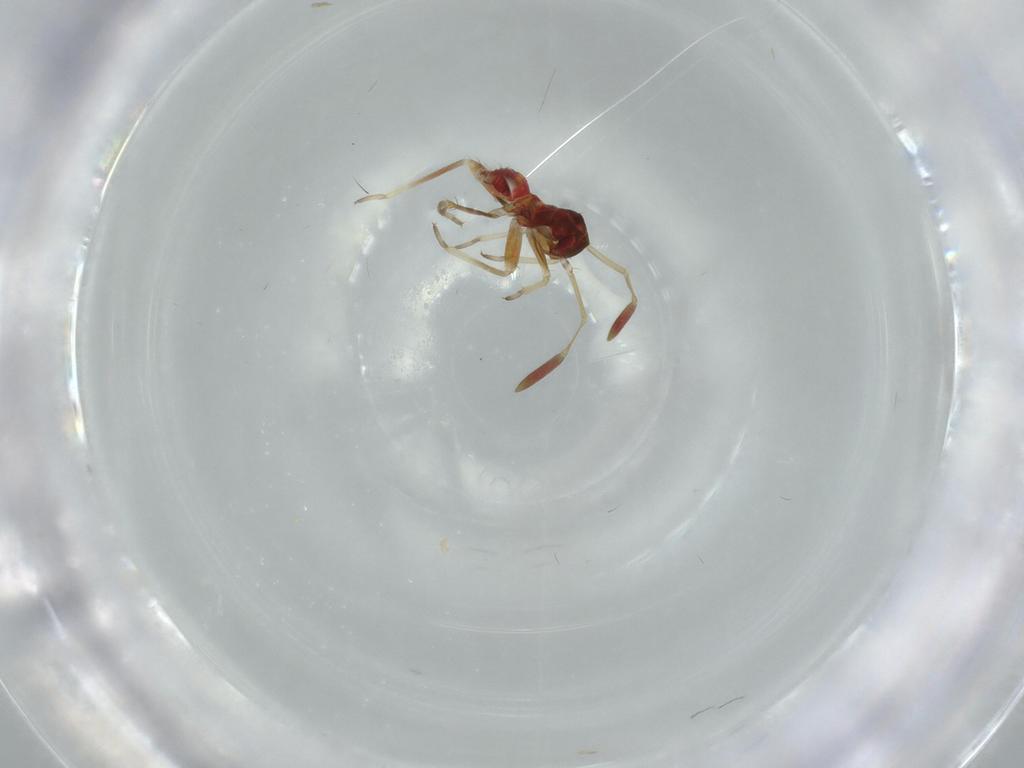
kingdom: Animalia
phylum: Arthropoda
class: Insecta
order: Hemiptera
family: Miridae
